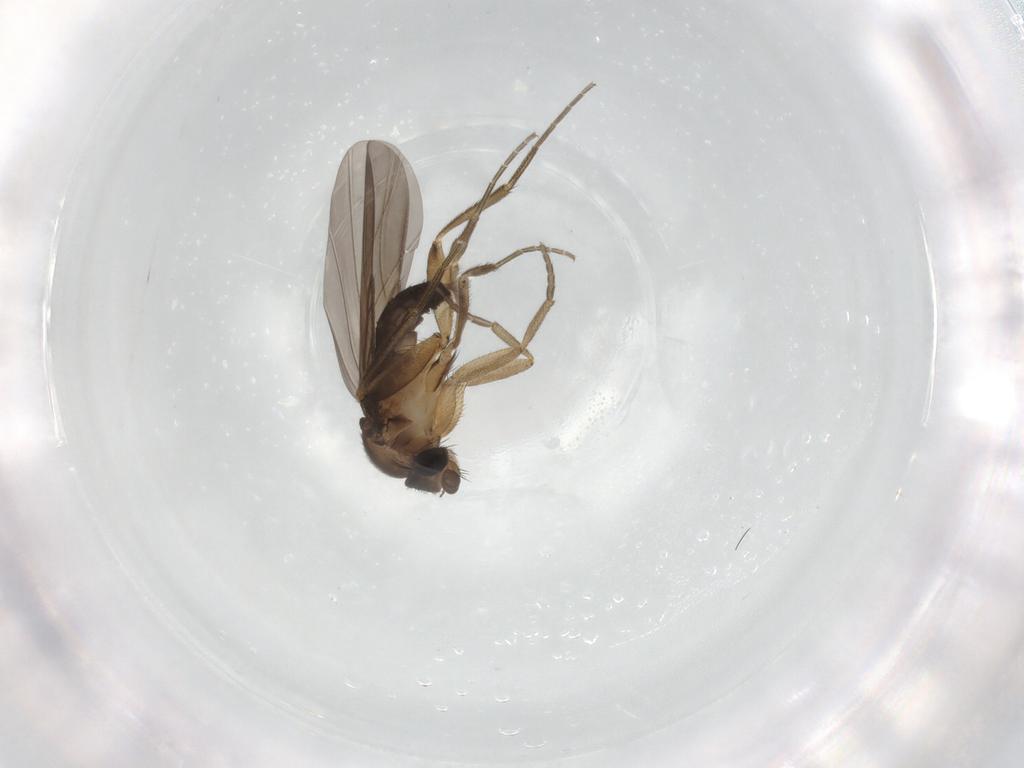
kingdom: Animalia
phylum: Arthropoda
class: Insecta
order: Diptera
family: Phoridae
